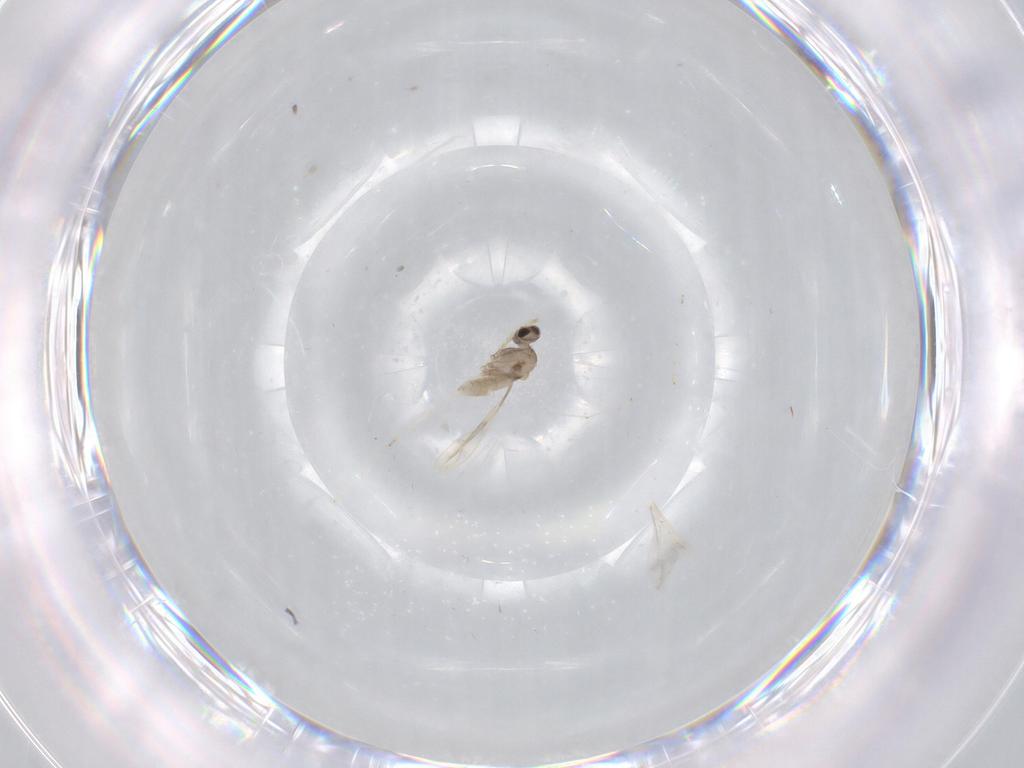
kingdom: Animalia
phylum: Arthropoda
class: Insecta
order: Diptera
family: Cecidomyiidae
